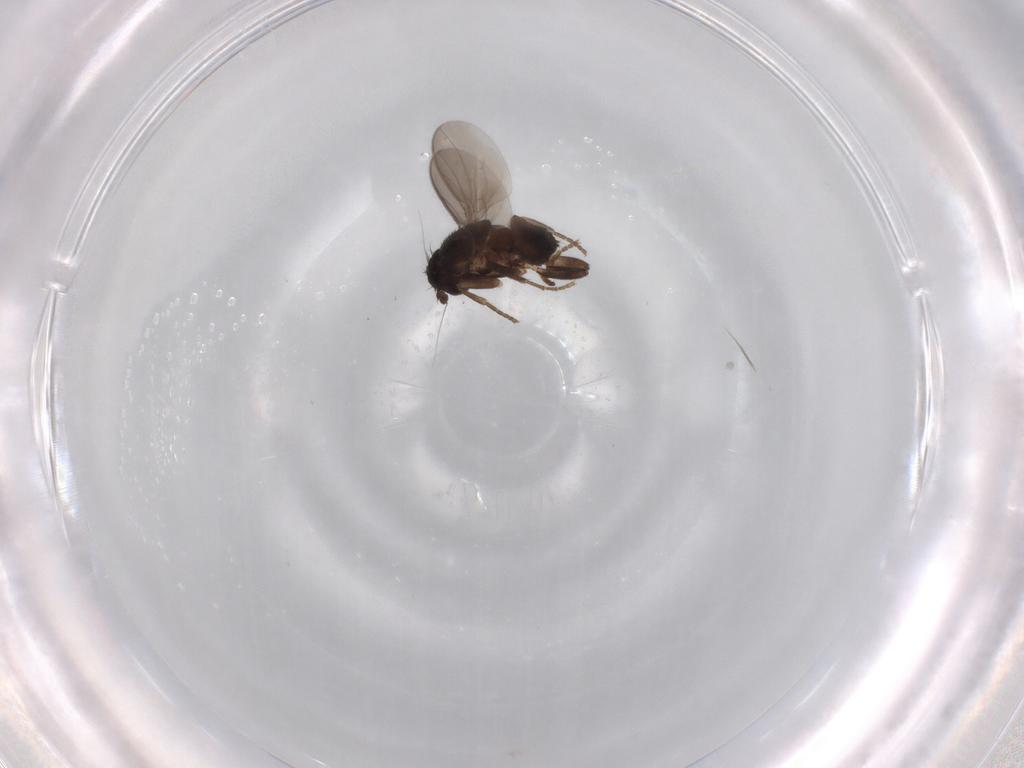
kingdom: Animalia
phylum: Arthropoda
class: Insecta
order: Diptera
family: Sphaeroceridae
